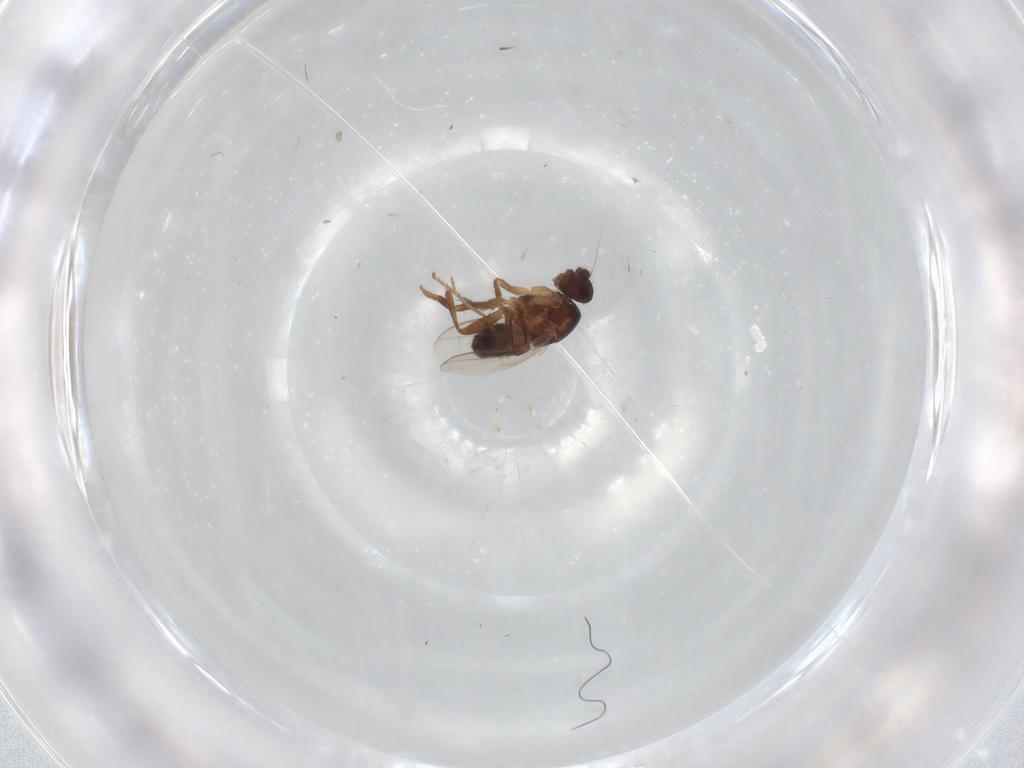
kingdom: Animalia
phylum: Arthropoda
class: Insecta
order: Diptera
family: Sphaeroceridae
